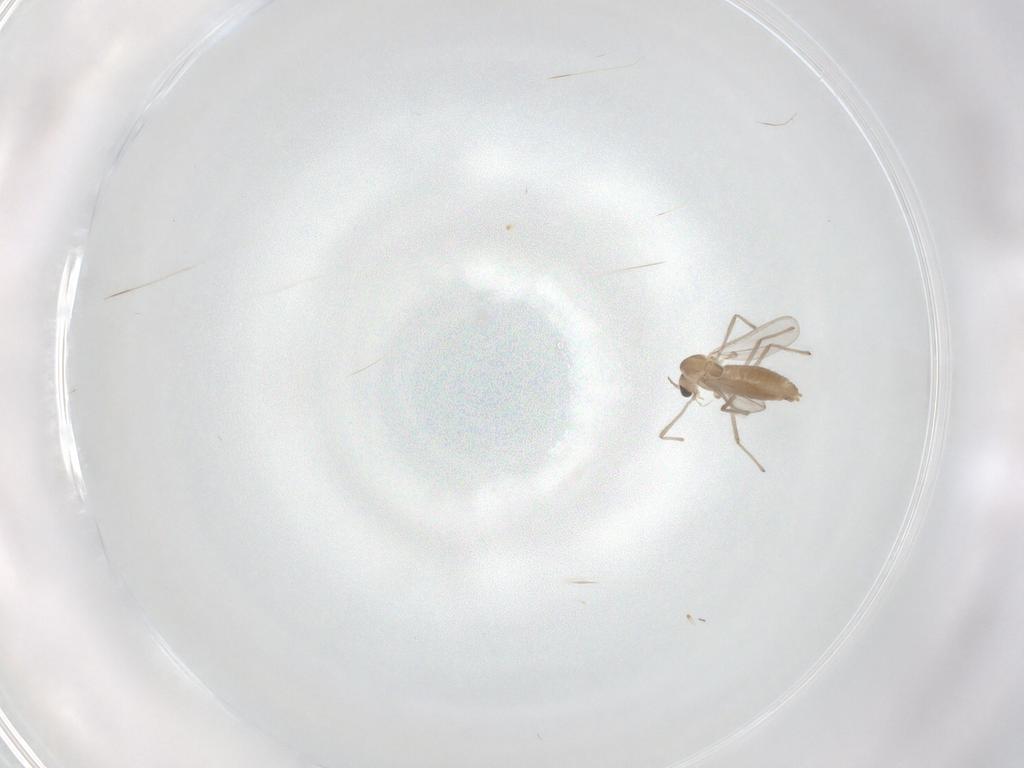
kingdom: Animalia
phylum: Arthropoda
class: Insecta
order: Diptera
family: Chironomidae
